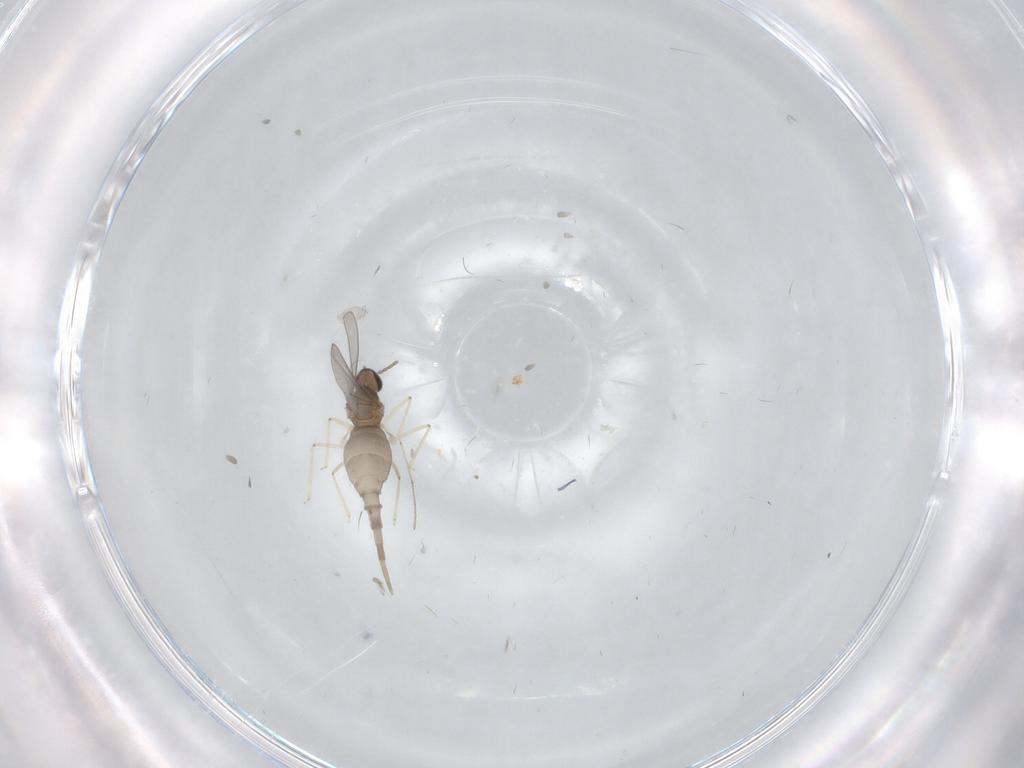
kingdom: Animalia
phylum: Arthropoda
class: Insecta
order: Diptera
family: Cecidomyiidae
